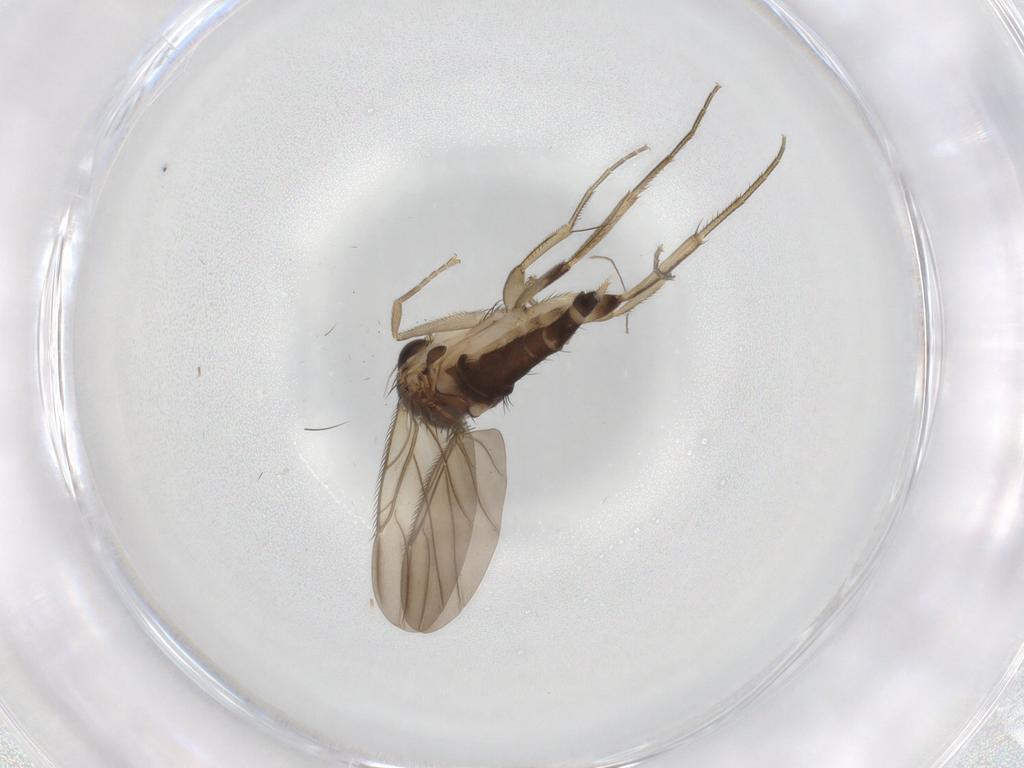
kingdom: Animalia
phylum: Arthropoda
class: Insecta
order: Diptera
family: Phoridae
